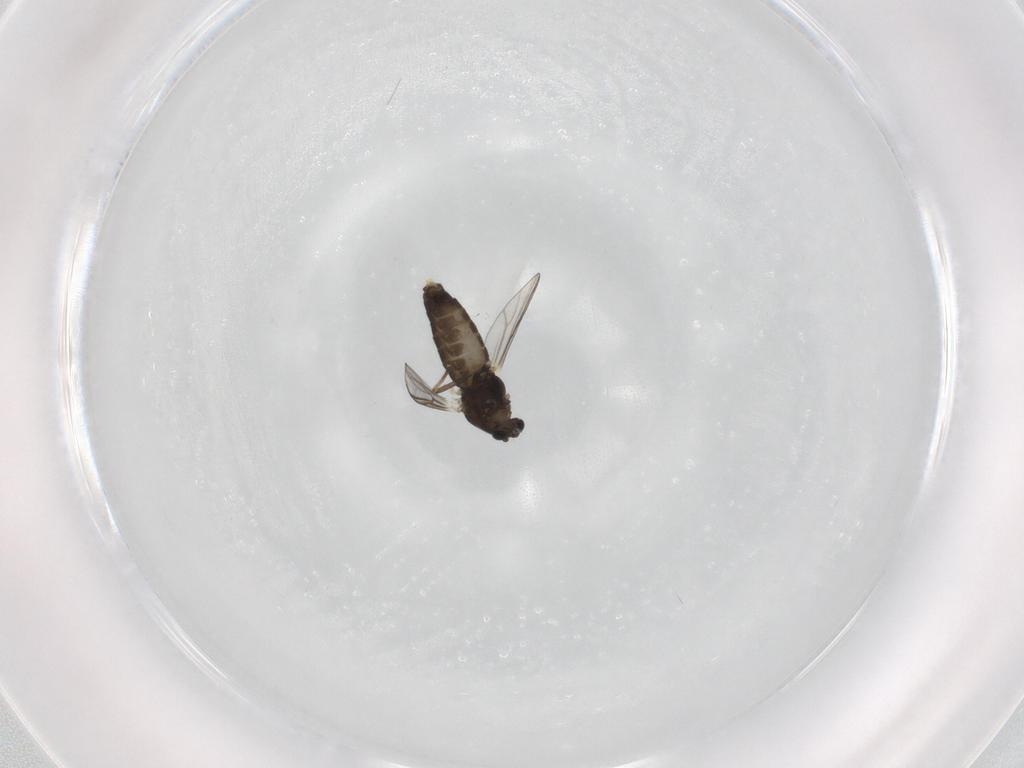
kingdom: Animalia
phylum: Arthropoda
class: Insecta
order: Diptera
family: Chironomidae
